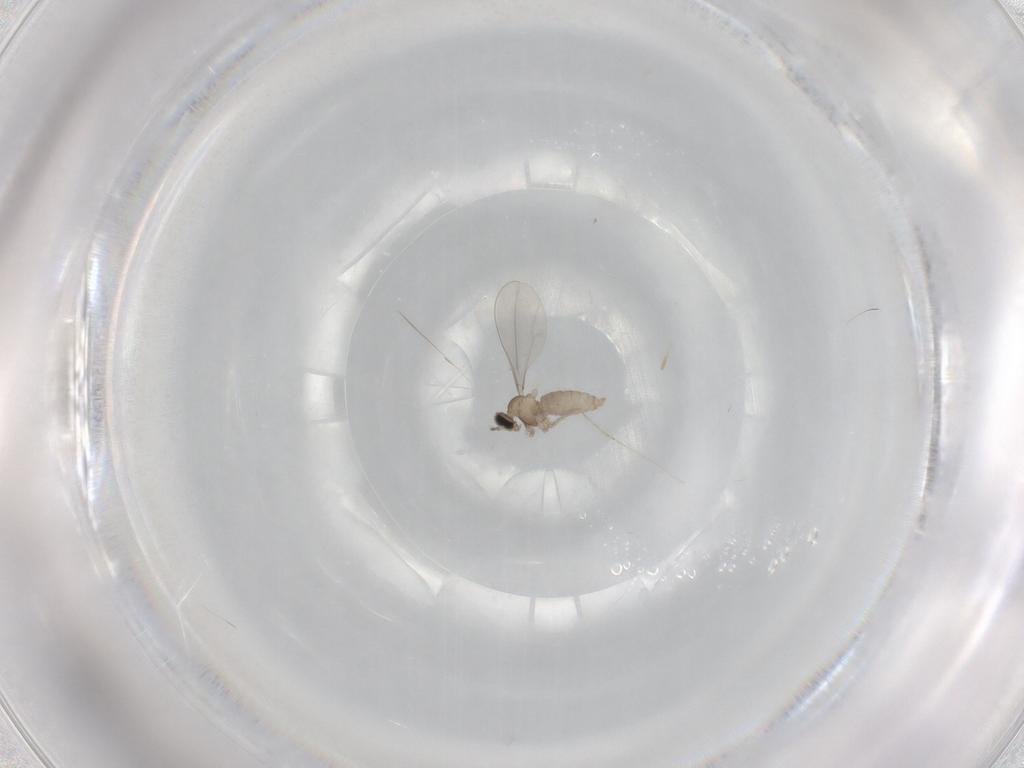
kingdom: Animalia
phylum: Arthropoda
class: Insecta
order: Diptera
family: Cecidomyiidae
